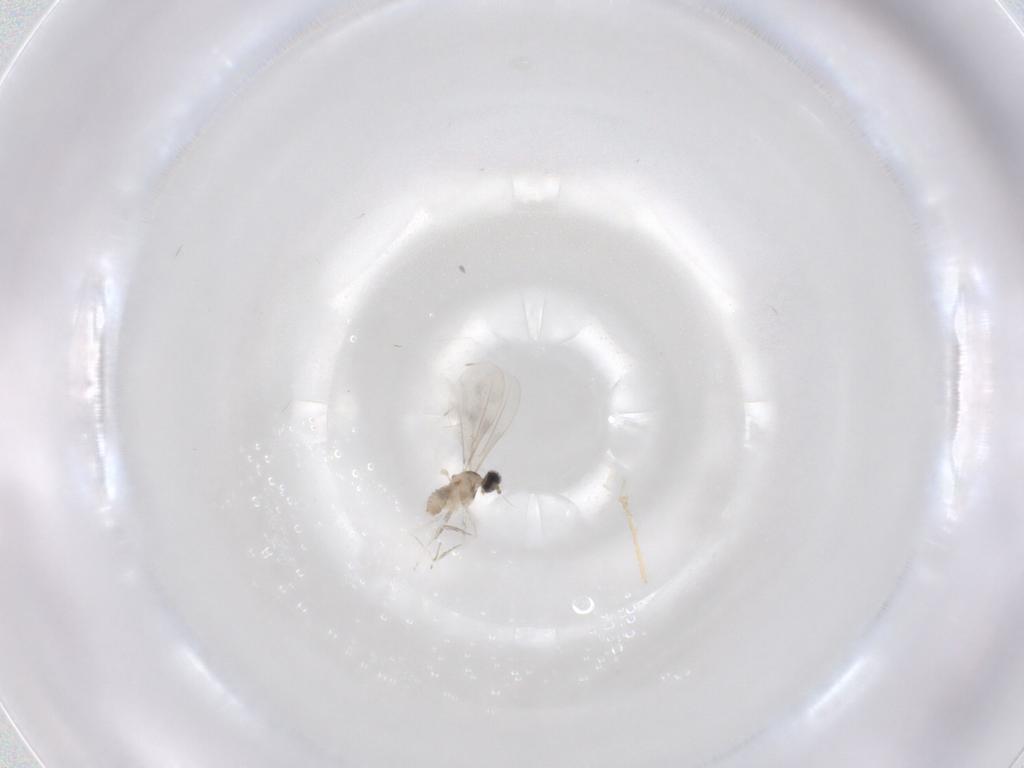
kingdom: Animalia
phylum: Arthropoda
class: Insecta
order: Diptera
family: Cecidomyiidae
